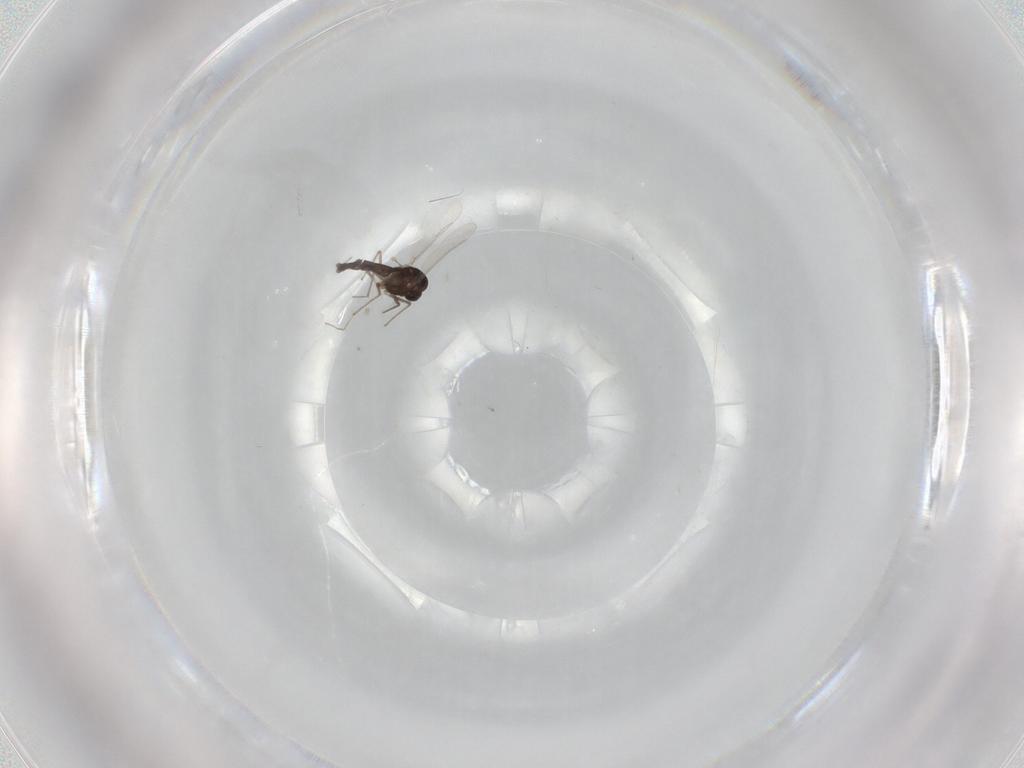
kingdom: Animalia
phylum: Arthropoda
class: Insecta
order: Diptera
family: Chironomidae
